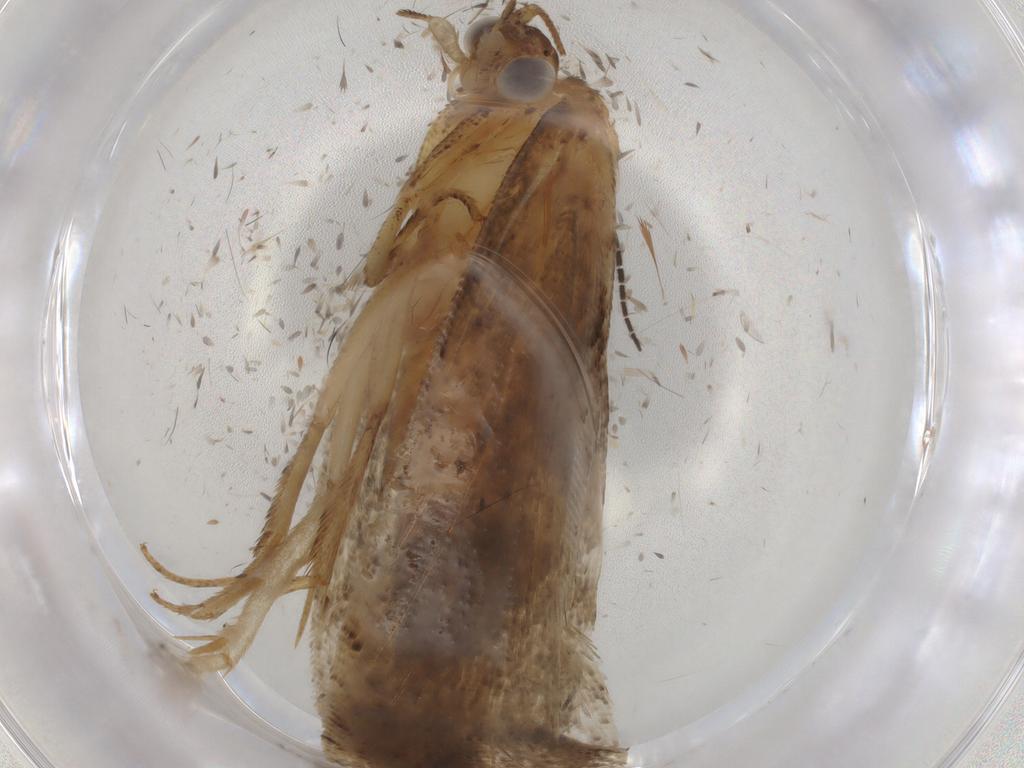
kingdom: Animalia
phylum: Arthropoda
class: Insecta
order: Lepidoptera
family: Tortricidae
